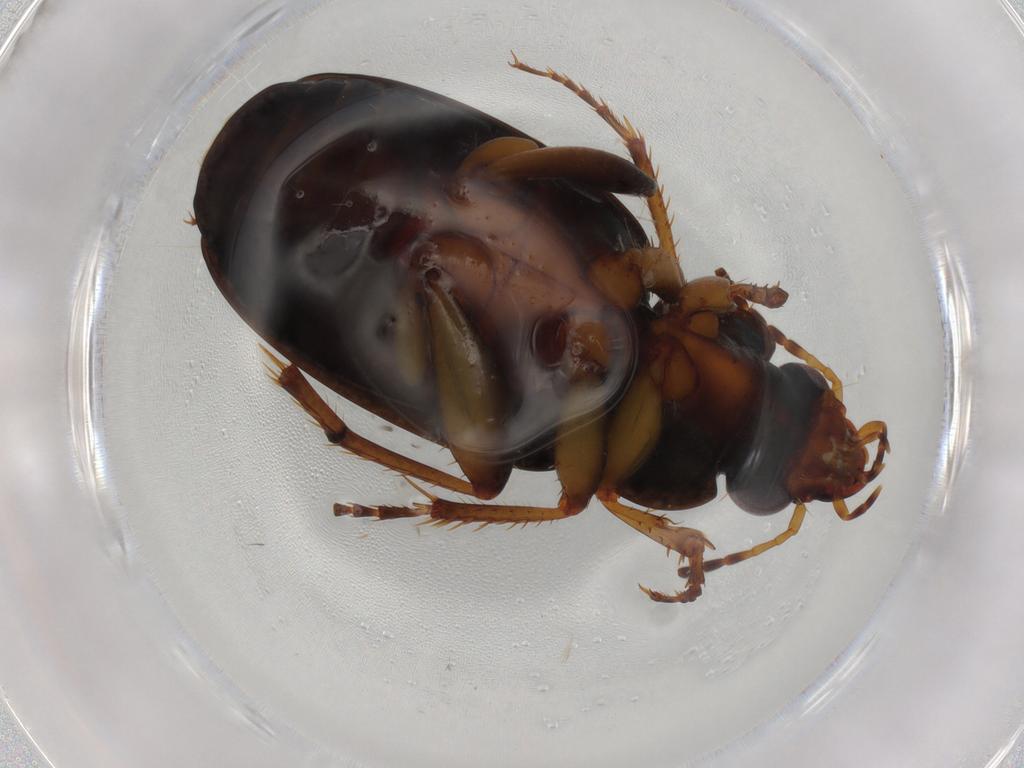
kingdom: Animalia
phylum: Arthropoda
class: Insecta
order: Coleoptera
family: Carabidae
